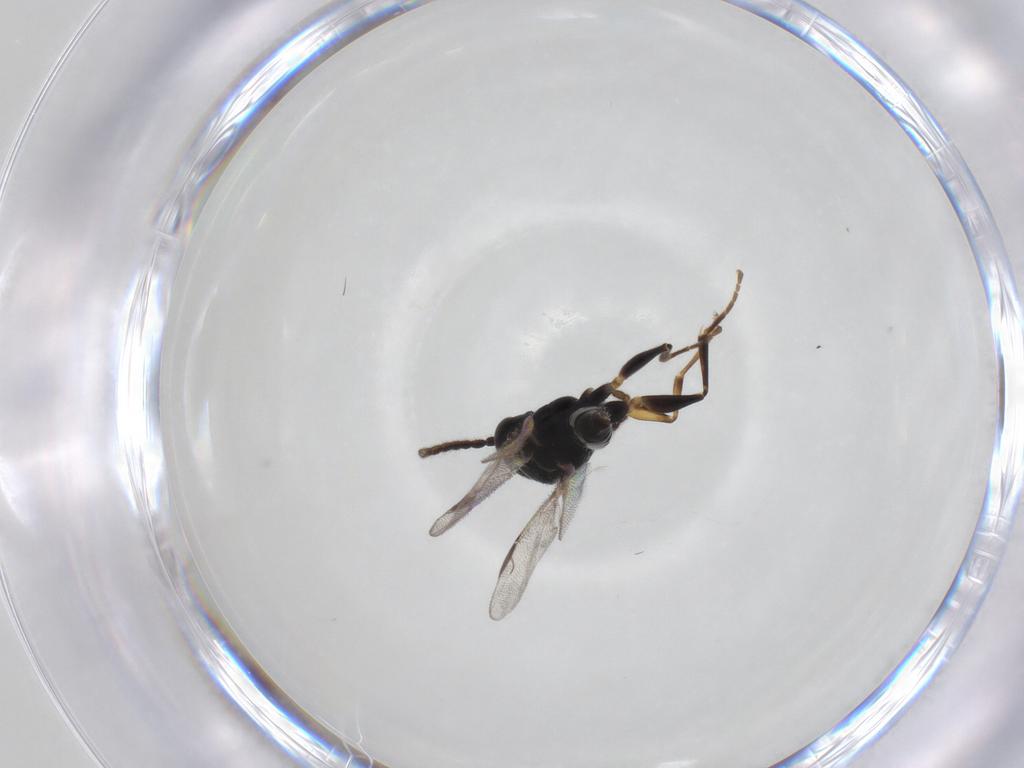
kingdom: Animalia
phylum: Arthropoda
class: Insecta
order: Hymenoptera
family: Dryinidae
